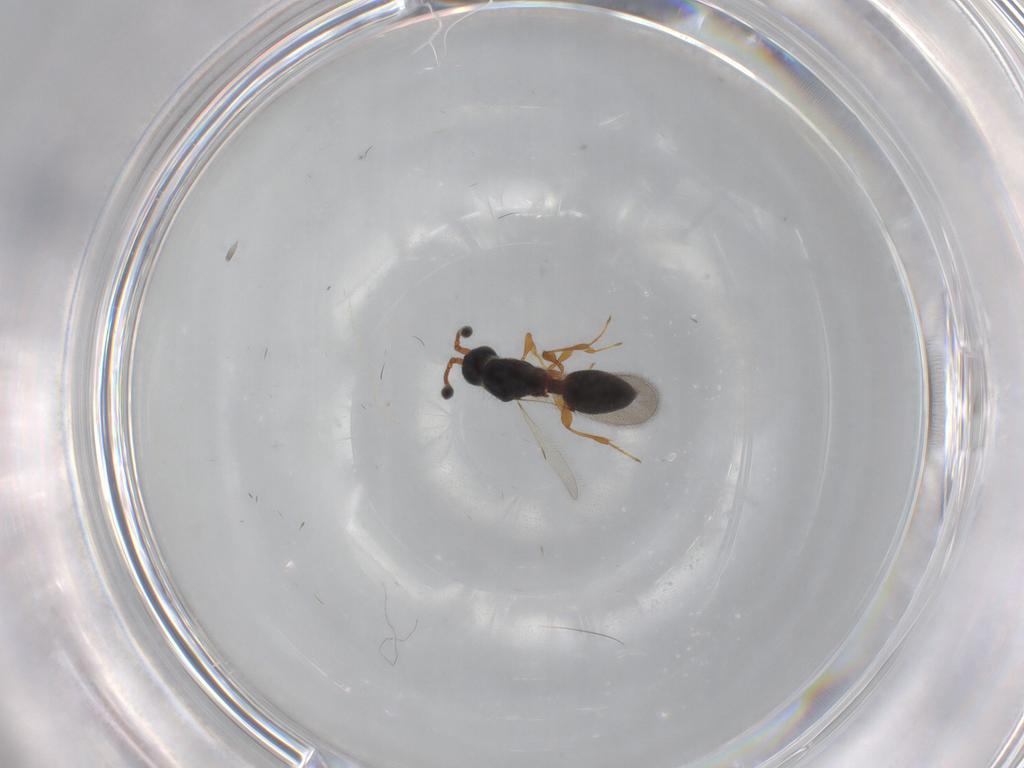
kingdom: Animalia
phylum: Arthropoda
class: Insecta
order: Hymenoptera
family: Diapriidae
